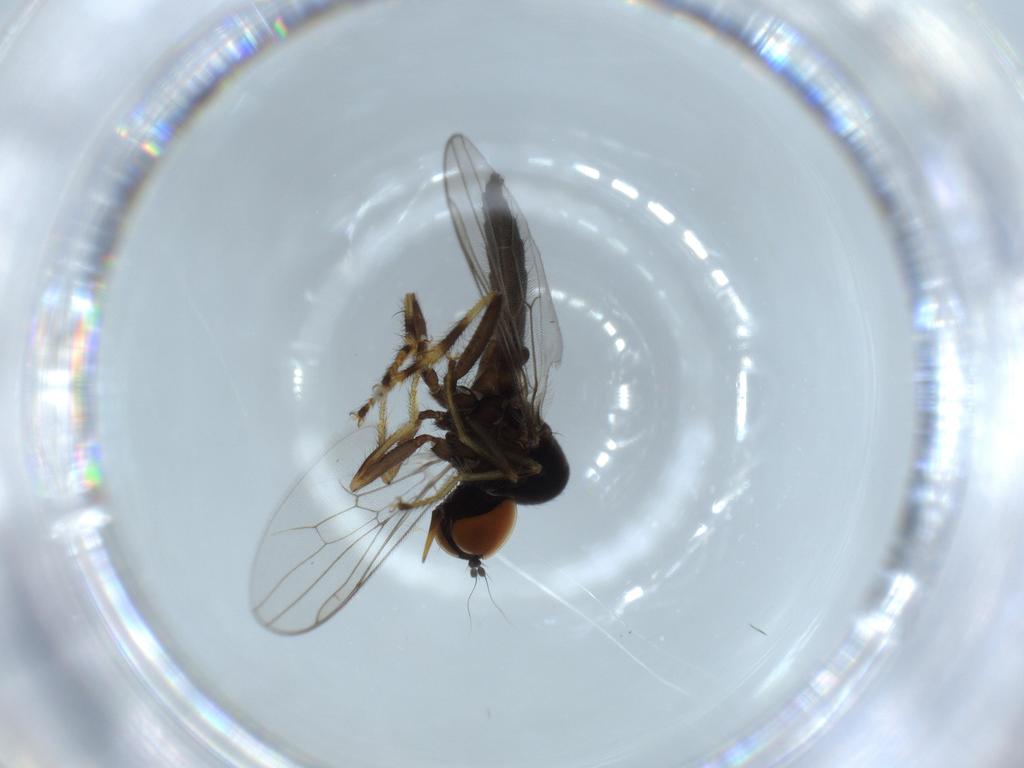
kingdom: Animalia
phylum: Arthropoda
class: Insecta
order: Diptera
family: Hybotidae
